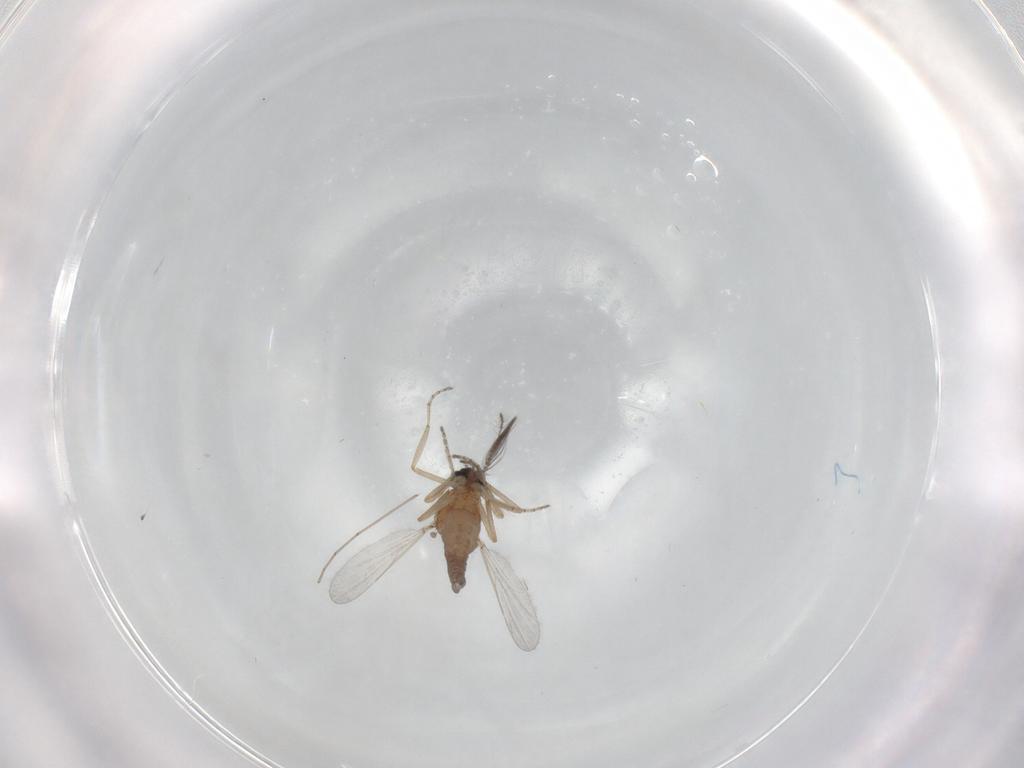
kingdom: Animalia
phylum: Arthropoda
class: Insecta
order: Diptera
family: Ceratopogonidae
